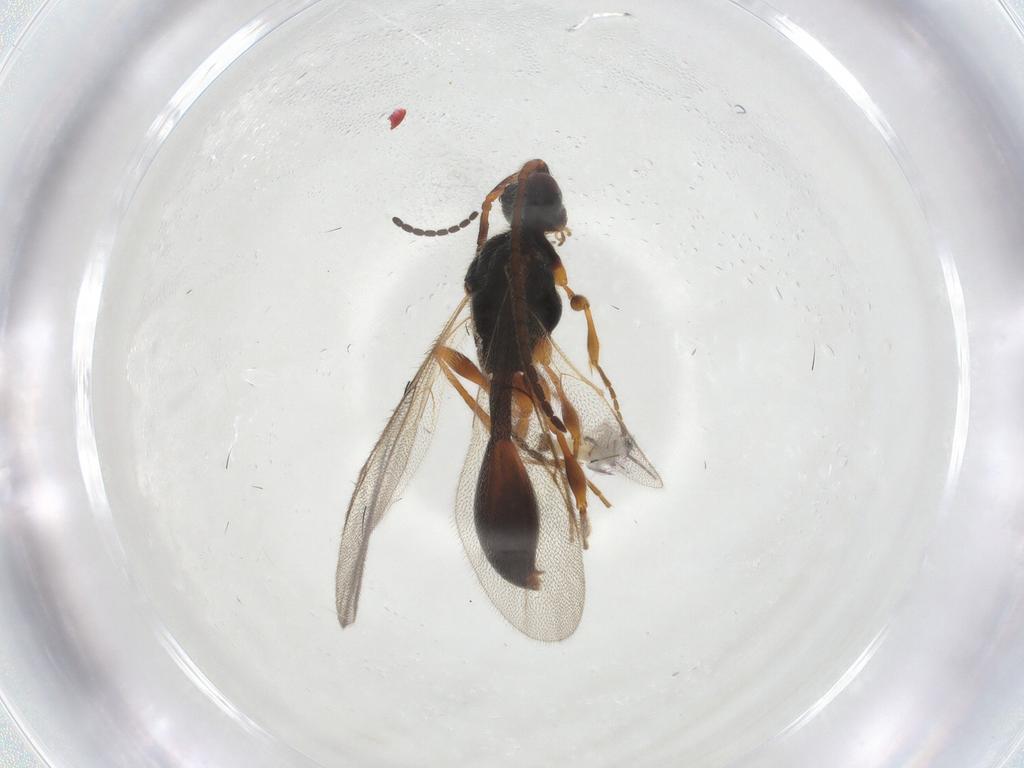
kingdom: Animalia
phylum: Arthropoda
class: Insecta
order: Hymenoptera
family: Mymaridae
